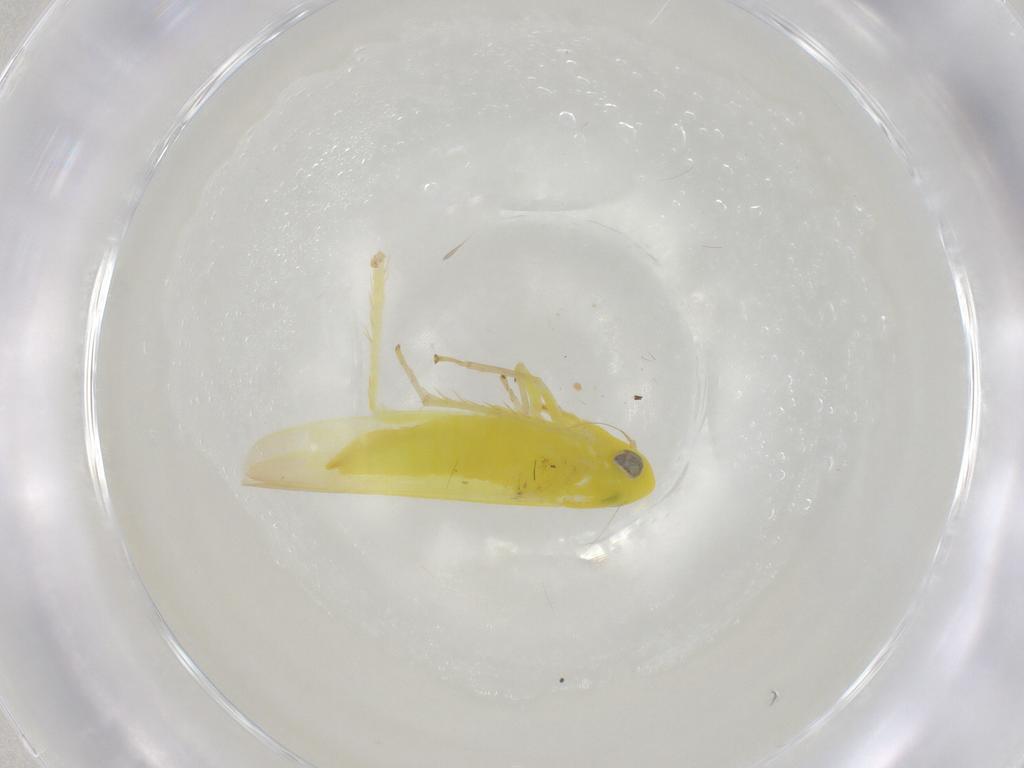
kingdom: Animalia
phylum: Arthropoda
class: Insecta
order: Hemiptera
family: Cicadellidae
